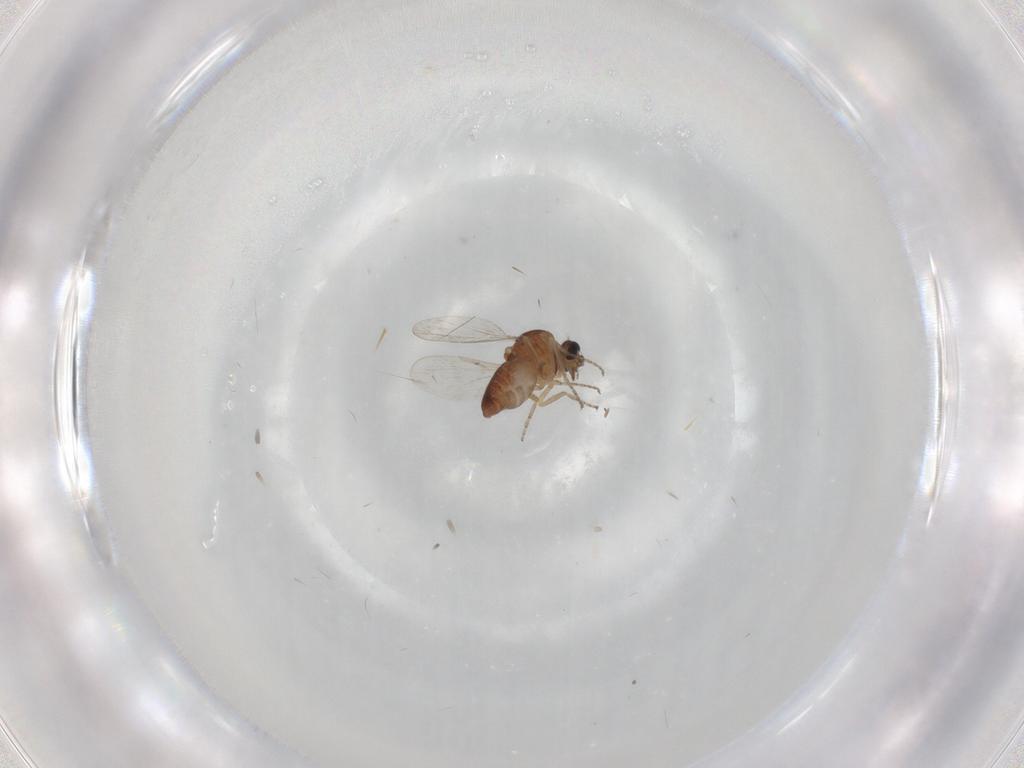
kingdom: Animalia
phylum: Arthropoda
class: Insecta
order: Diptera
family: Ceratopogonidae
